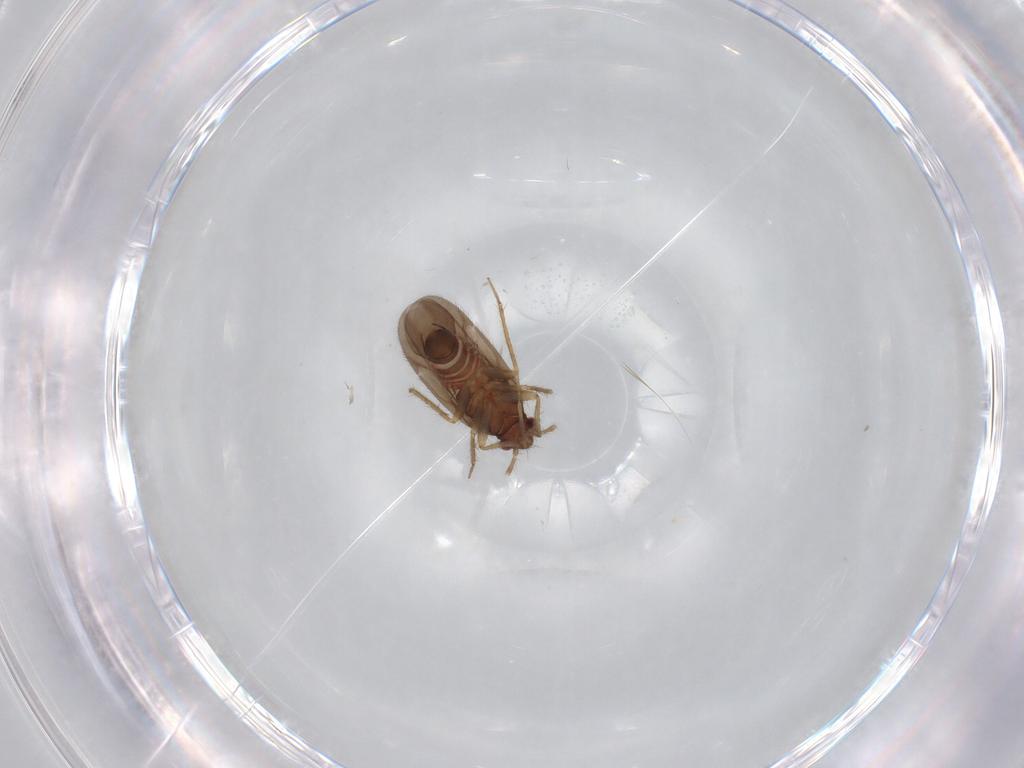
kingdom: Animalia
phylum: Arthropoda
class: Insecta
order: Hemiptera
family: Ceratocombidae
